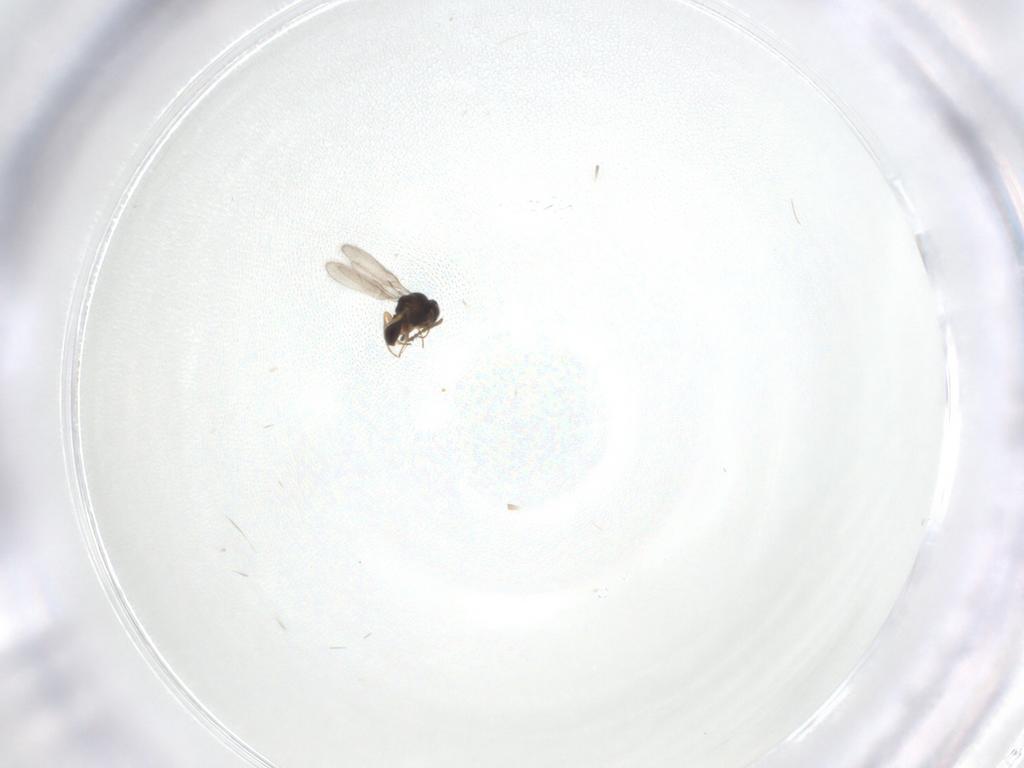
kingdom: Animalia
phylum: Arthropoda
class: Insecta
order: Hymenoptera
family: Scelionidae
